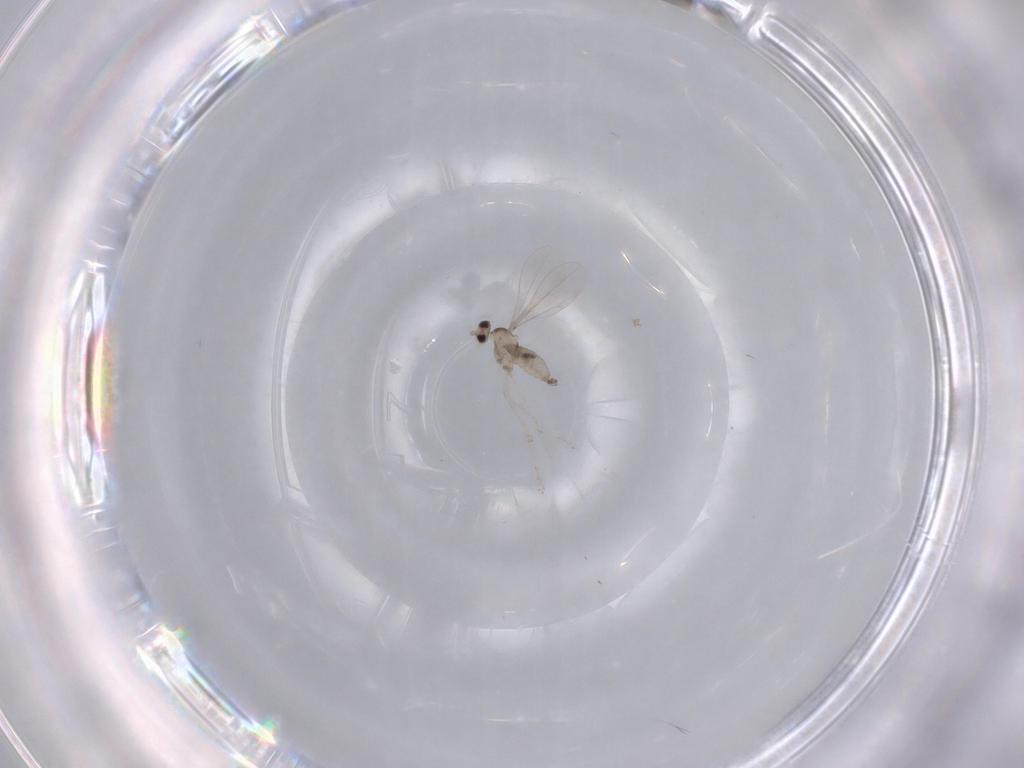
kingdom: Animalia
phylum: Arthropoda
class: Insecta
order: Diptera
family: Cecidomyiidae
